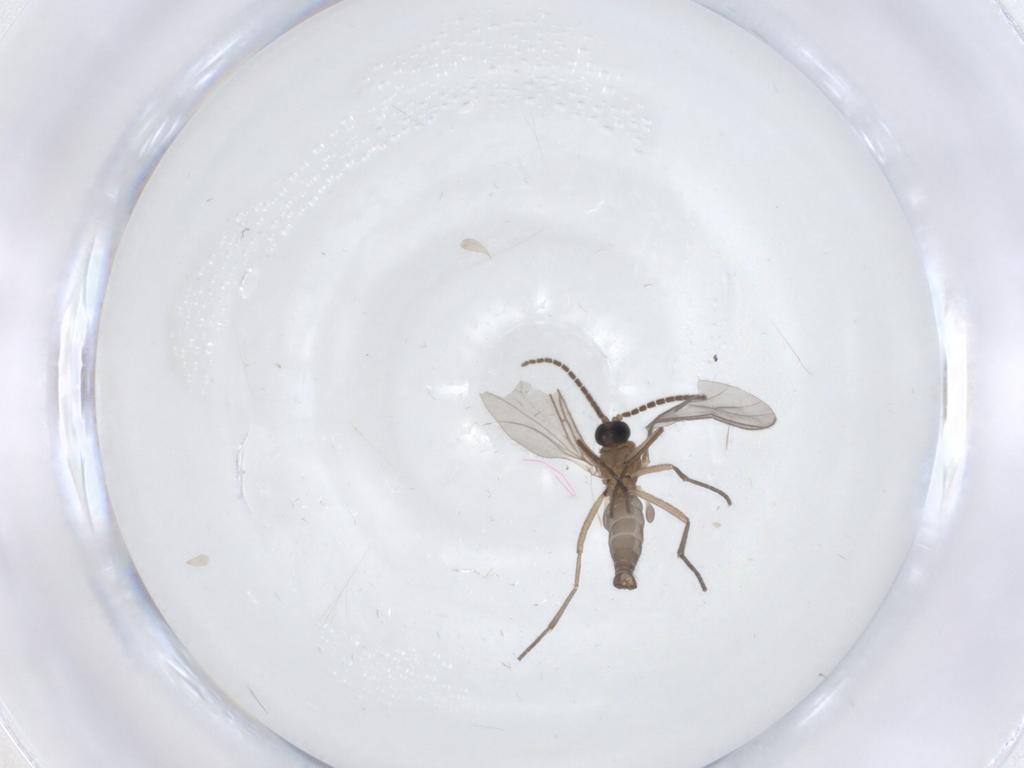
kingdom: Animalia
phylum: Arthropoda
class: Insecta
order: Diptera
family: Sciaridae
